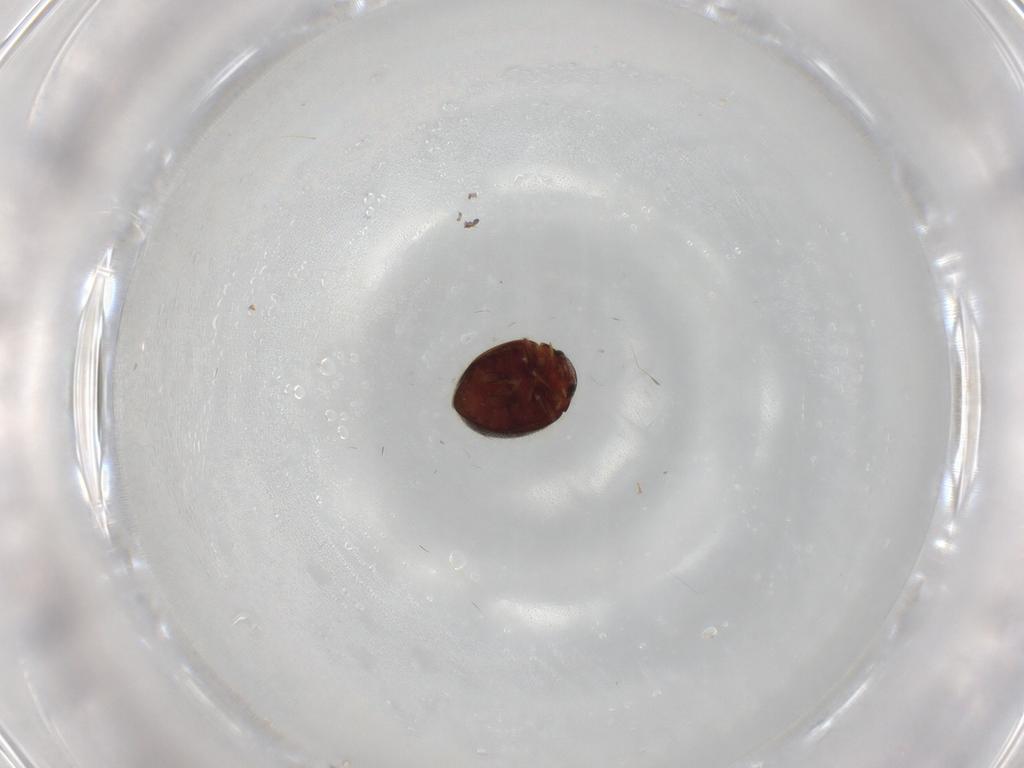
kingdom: Animalia
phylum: Arthropoda
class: Insecta
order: Coleoptera
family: Coccinellidae
